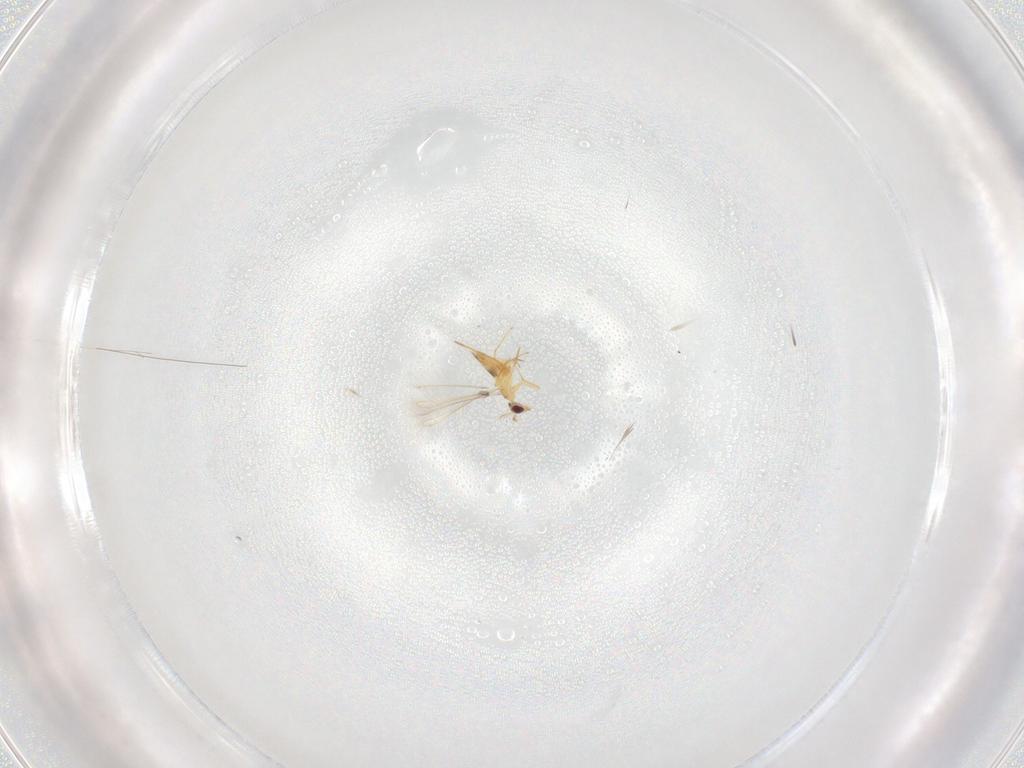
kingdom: Animalia
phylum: Arthropoda
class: Insecta
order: Hymenoptera
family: Mymaridae
